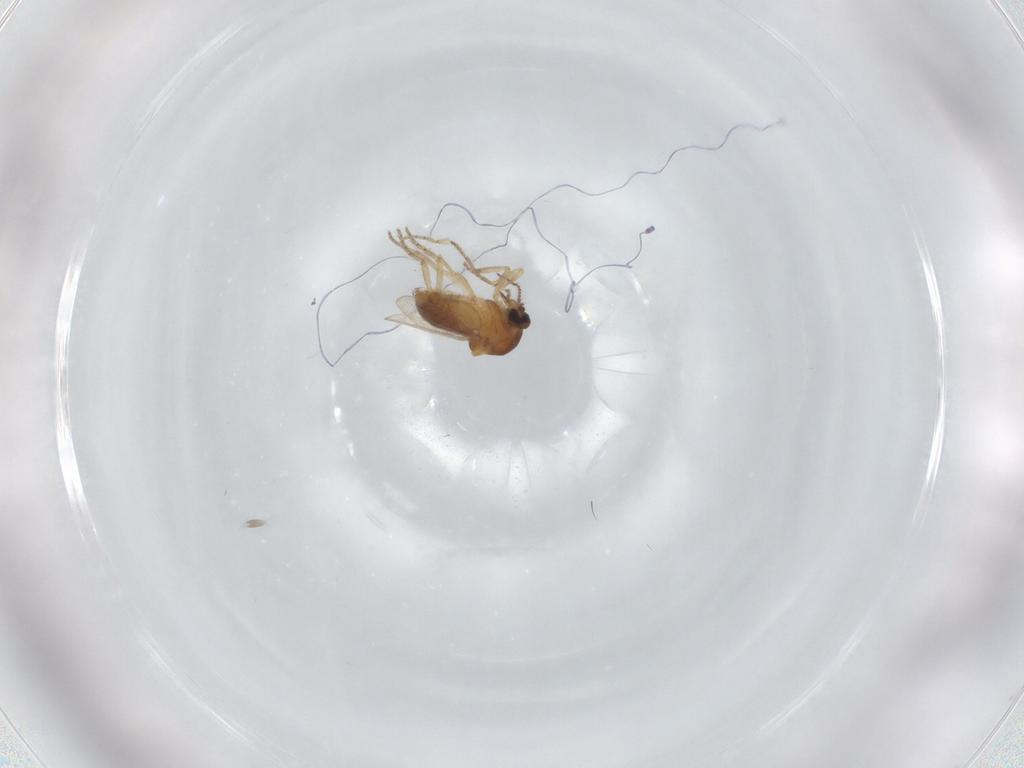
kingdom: Animalia
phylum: Arthropoda
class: Insecta
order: Diptera
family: Ceratopogonidae
